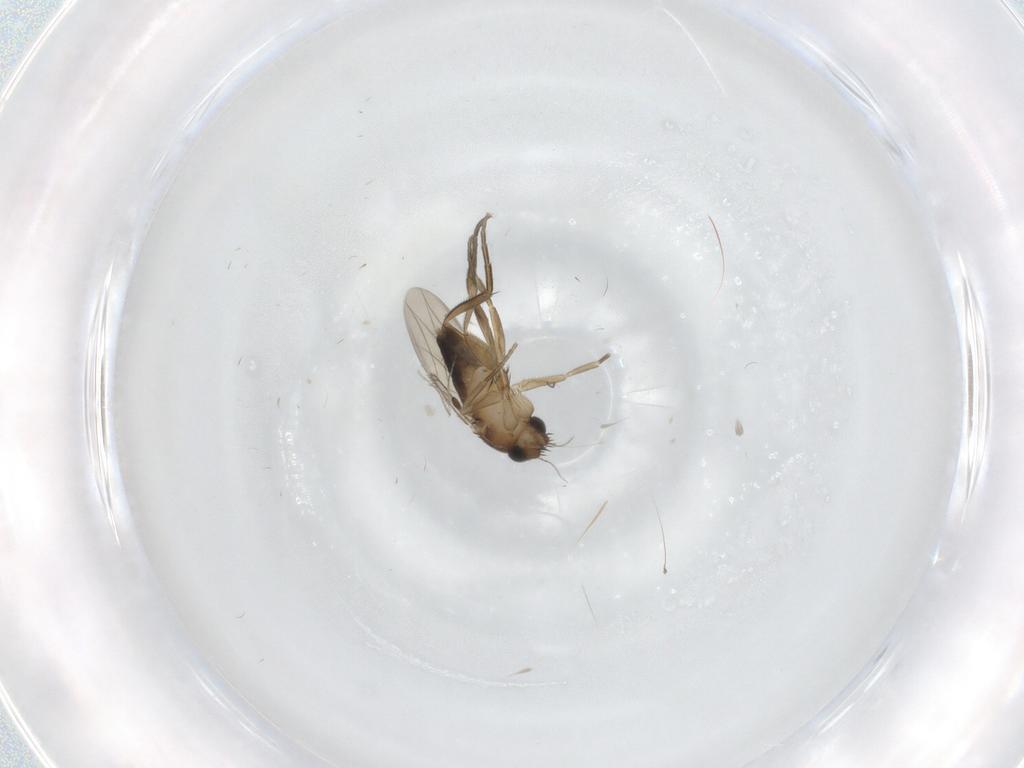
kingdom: Animalia
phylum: Arthropoda
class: Insecta
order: Diptera
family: Phoridae
